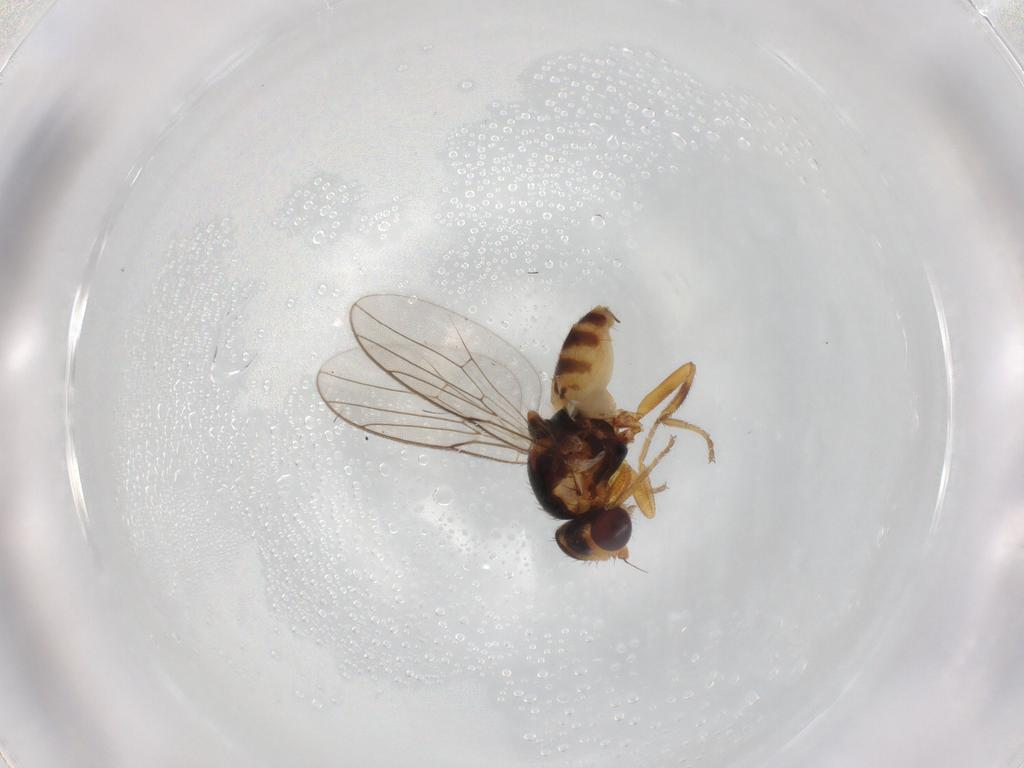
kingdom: Animalia
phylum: Arthropoda
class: Insecta
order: Diptera
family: Chloropidae
